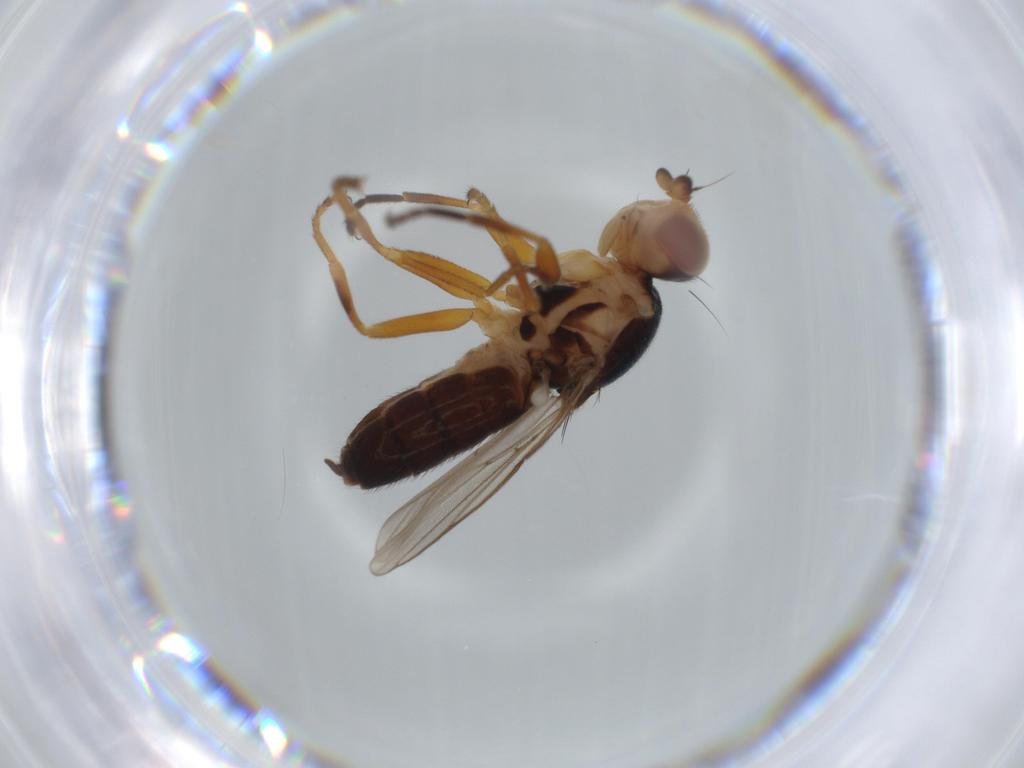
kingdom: Animalia
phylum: Arthropoda
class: Insecta
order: Diptera
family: Chloropidae
